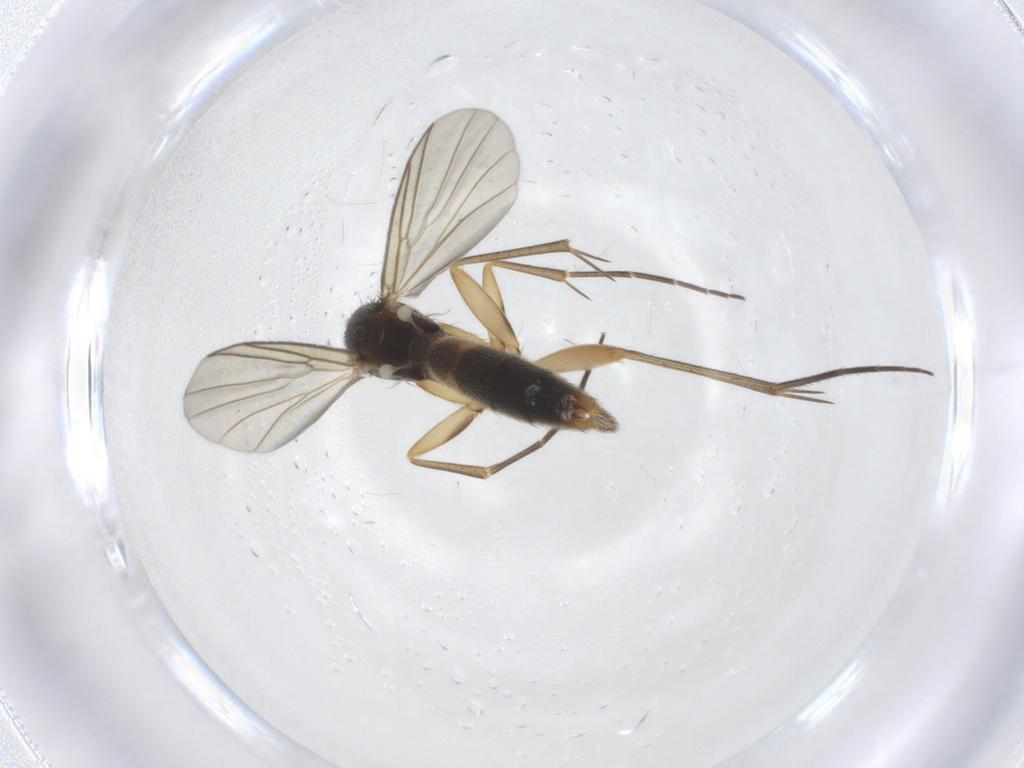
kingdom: Animalia
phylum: Arthropoda
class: Insecta
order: Diptera
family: Mycetophilidae
